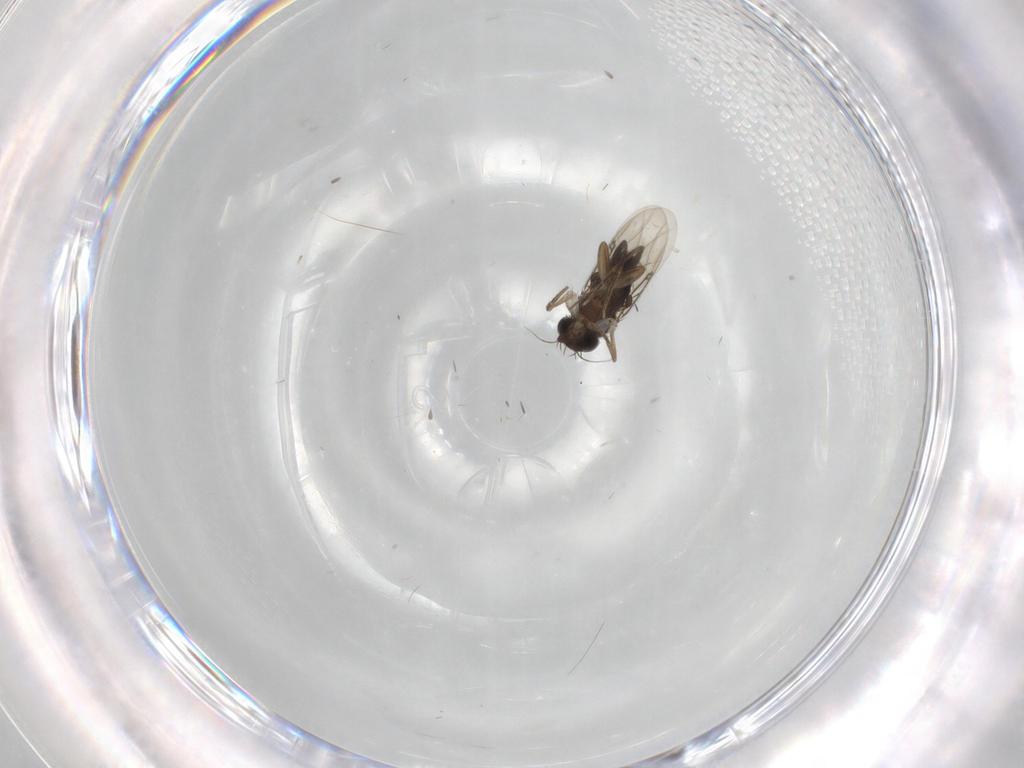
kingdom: Animalia
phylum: Arthropoda
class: Insecta
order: Diptera
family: Phoridae
